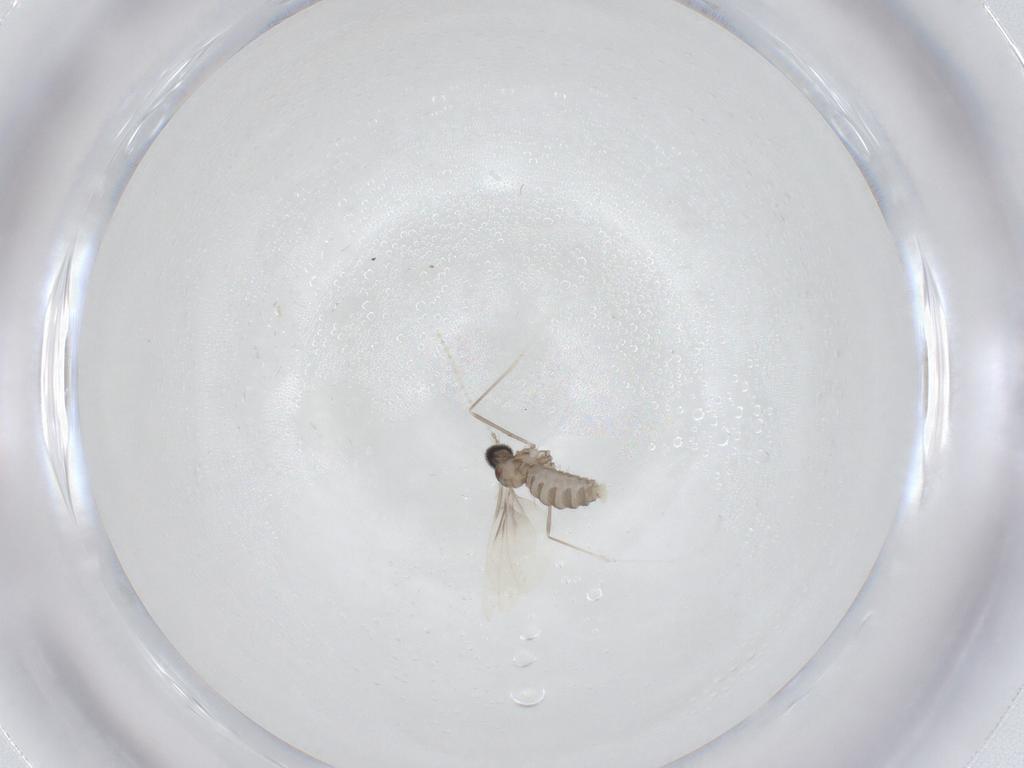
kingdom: Animalia
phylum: Arthropoda
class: Insecta
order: Diptera
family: Cecidomyiidae
